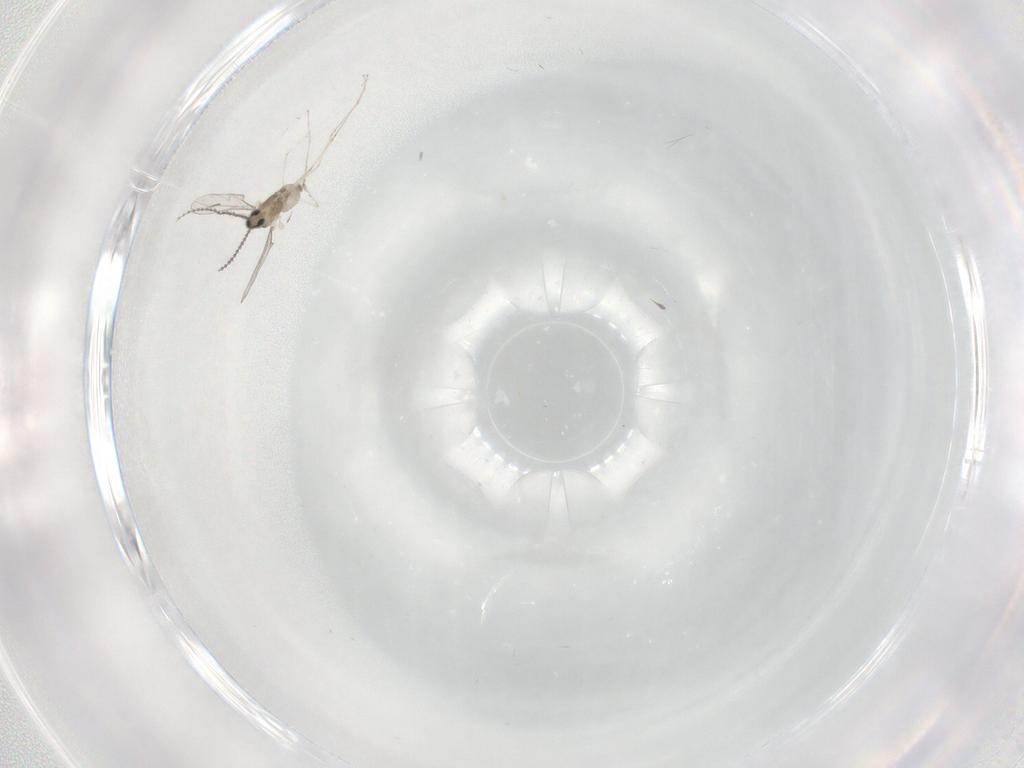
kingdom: Animalia
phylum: Arthropoda
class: Insecta
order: Diptera
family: Cecidomyiidae
